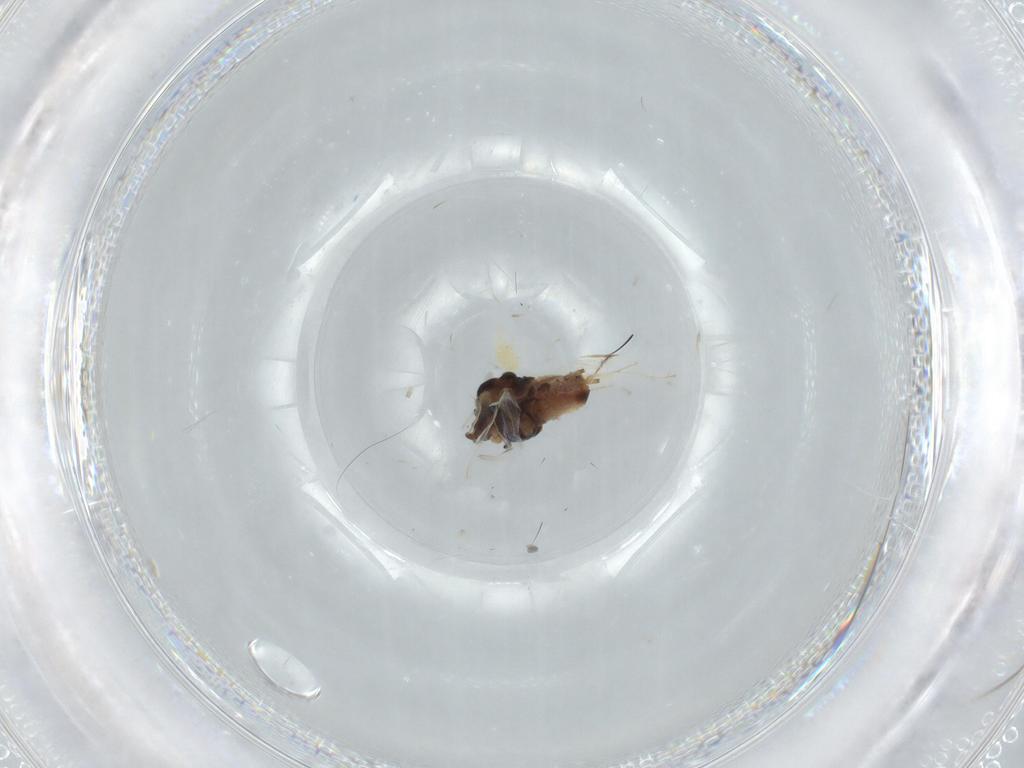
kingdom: Animalia
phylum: Arthropoda
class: Insecta
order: Hemiptera
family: Aphididae
